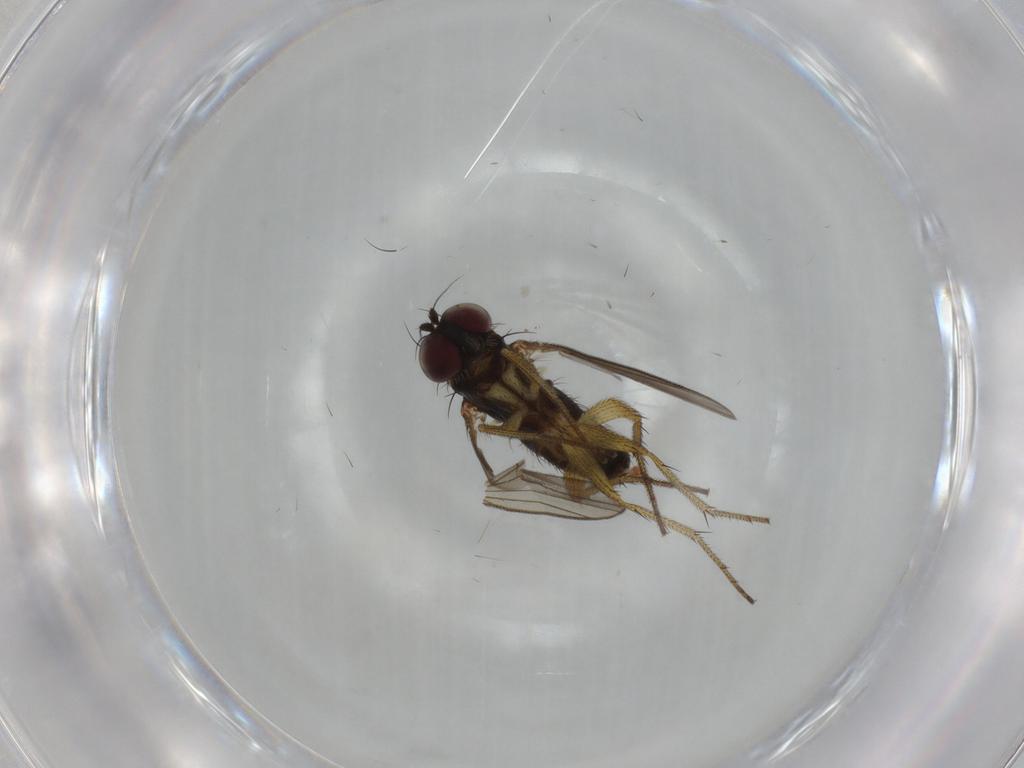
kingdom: Animalia
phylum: Arthropoda
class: Insecta
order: Diptera
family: Dolichopodidae
